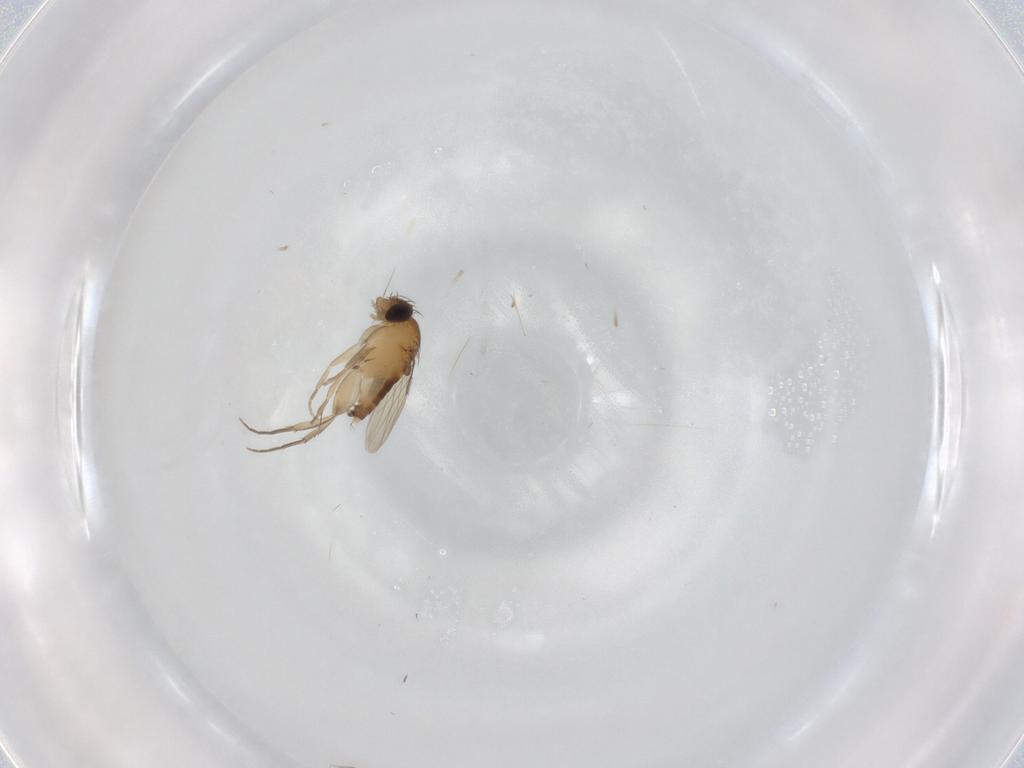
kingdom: Animalia
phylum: Arthropoda
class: Insecta
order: Diptera
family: Phoridae
